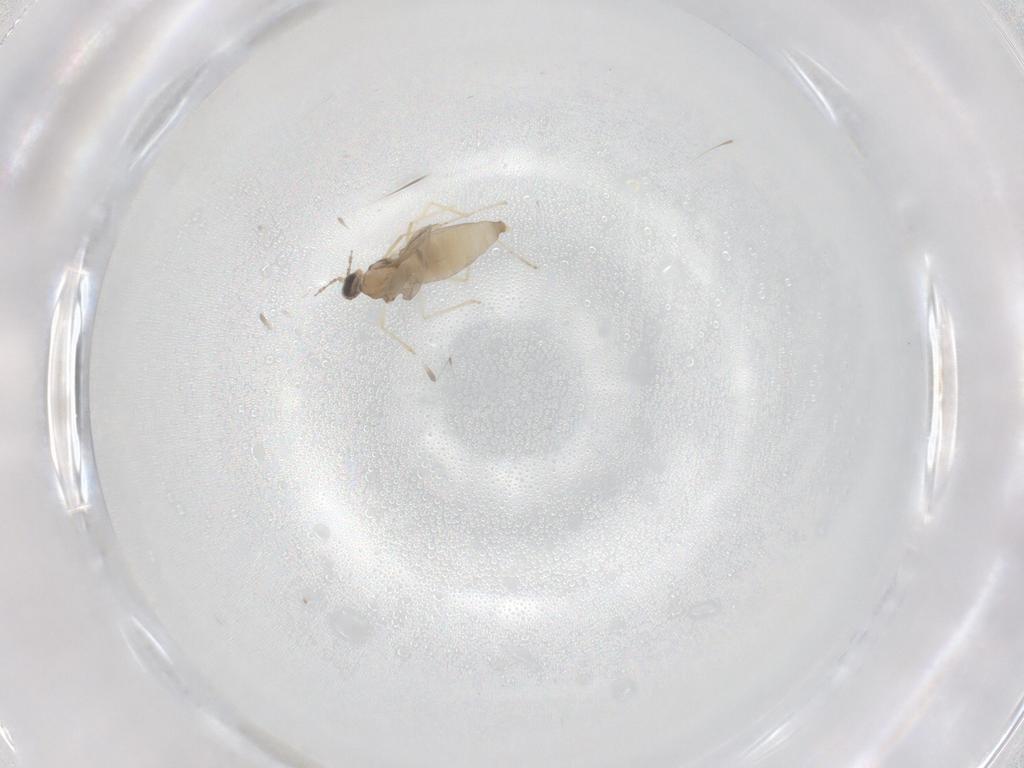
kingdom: Animalia
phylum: Arthropoda
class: Insecta
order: Diptera
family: Cecidomyiidae
